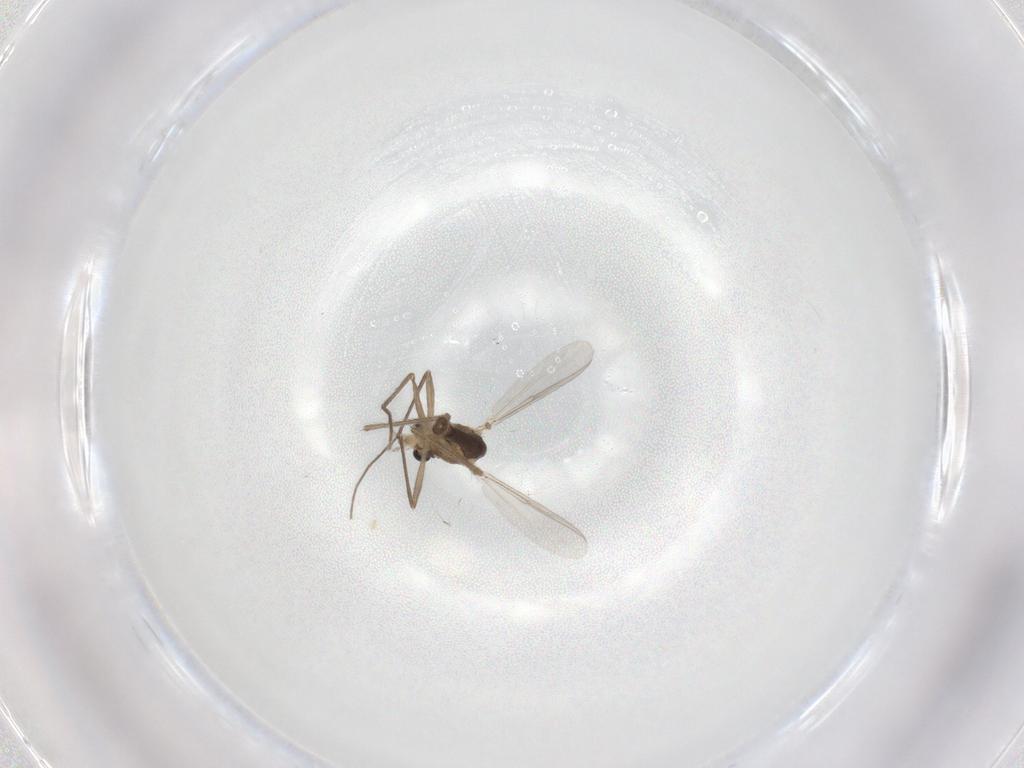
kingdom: Animalia
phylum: Arthropoda
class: Insecta
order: Diptera
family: Chironomidae
